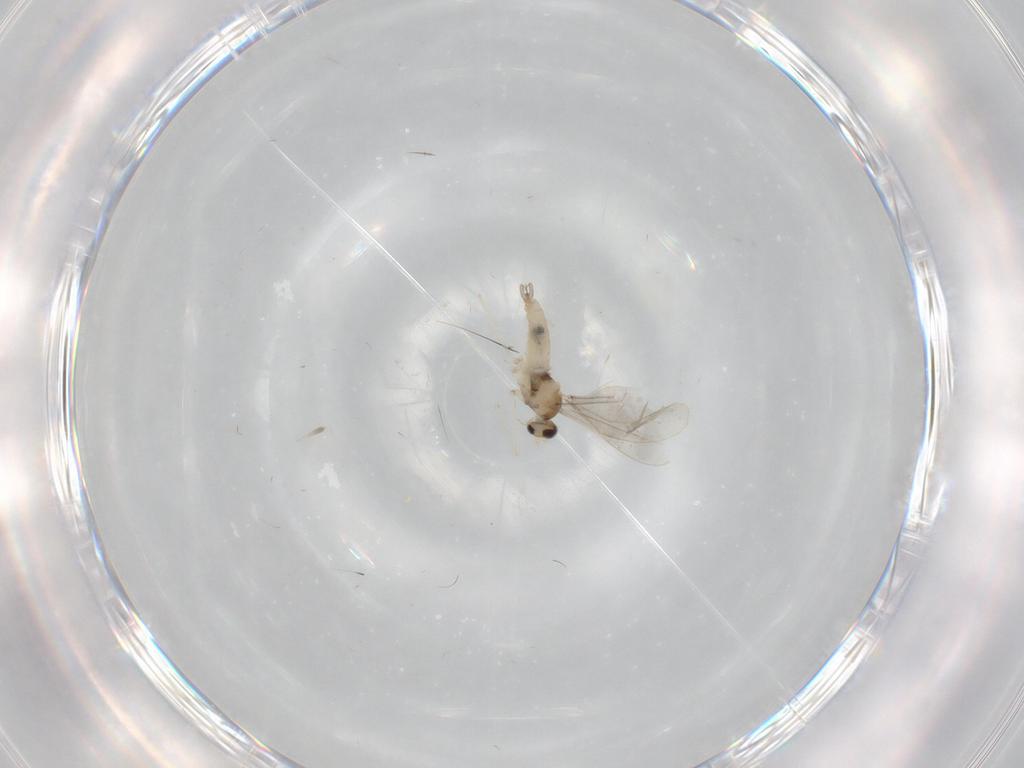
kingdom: Animalia
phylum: Arthropoda
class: Insecta
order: Diptera
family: Cecidomyiidae
